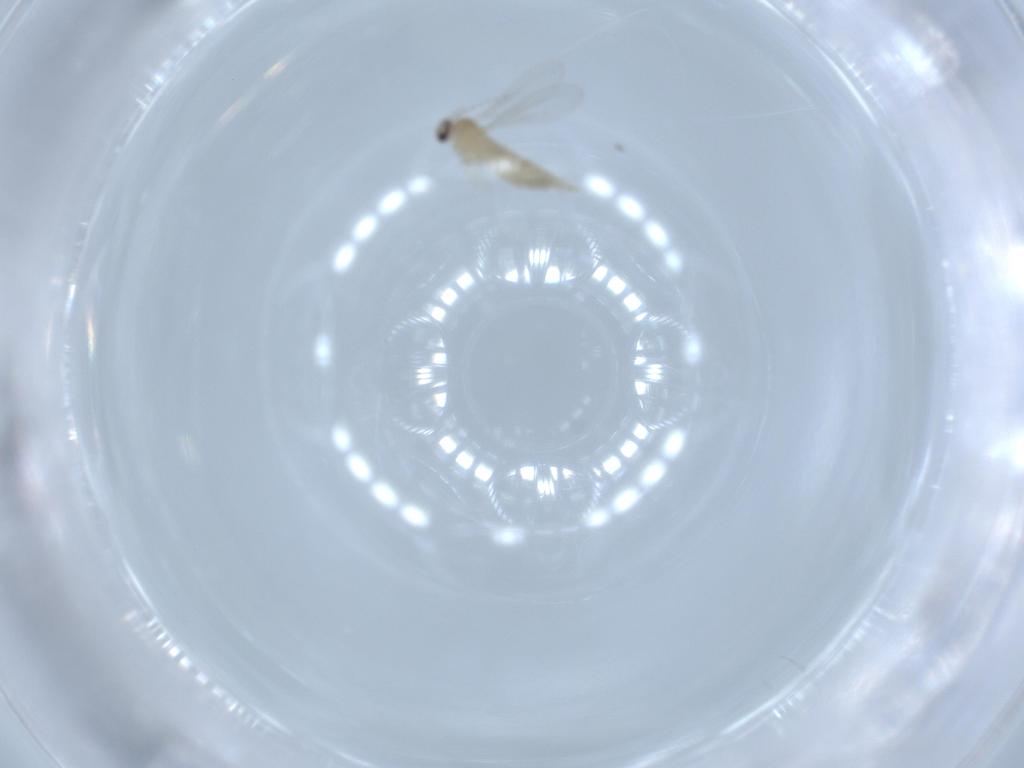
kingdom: Animalia
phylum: Arthropoda
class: Insecta
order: Diptera
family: Cecidomyiidae
